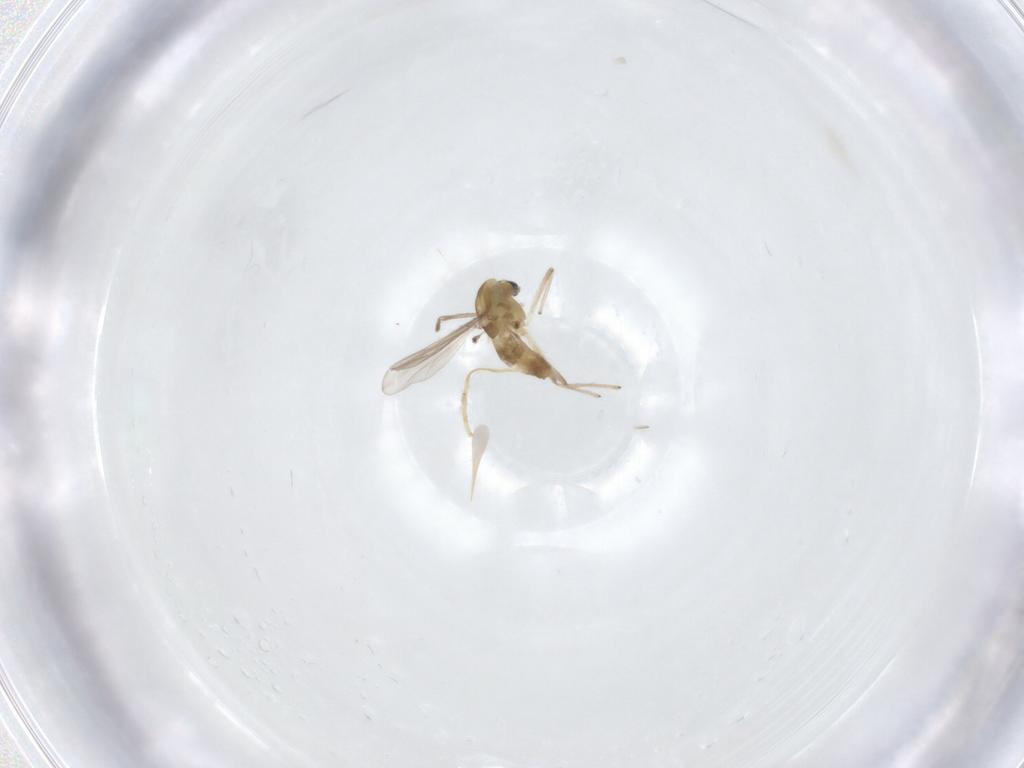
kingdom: Animalia
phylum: Arthropoda
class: Insecta
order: Diptera
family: Chironomidae
